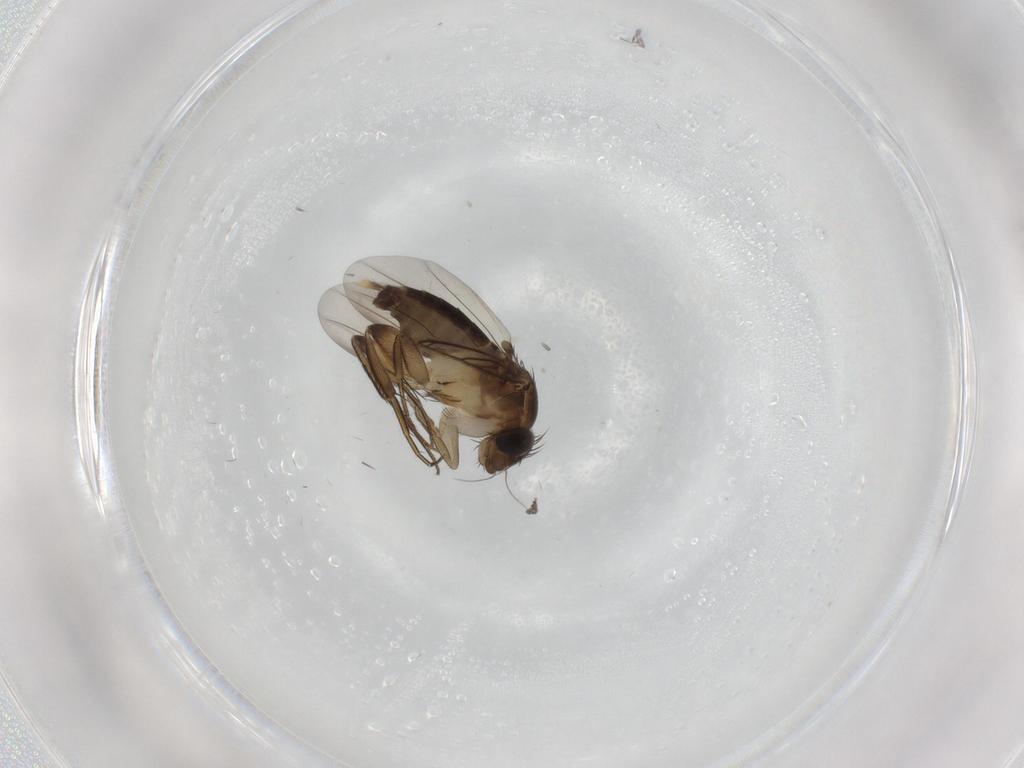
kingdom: Animalia
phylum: Arthropoda
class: Insecta
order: Diptera
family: Phoridae
